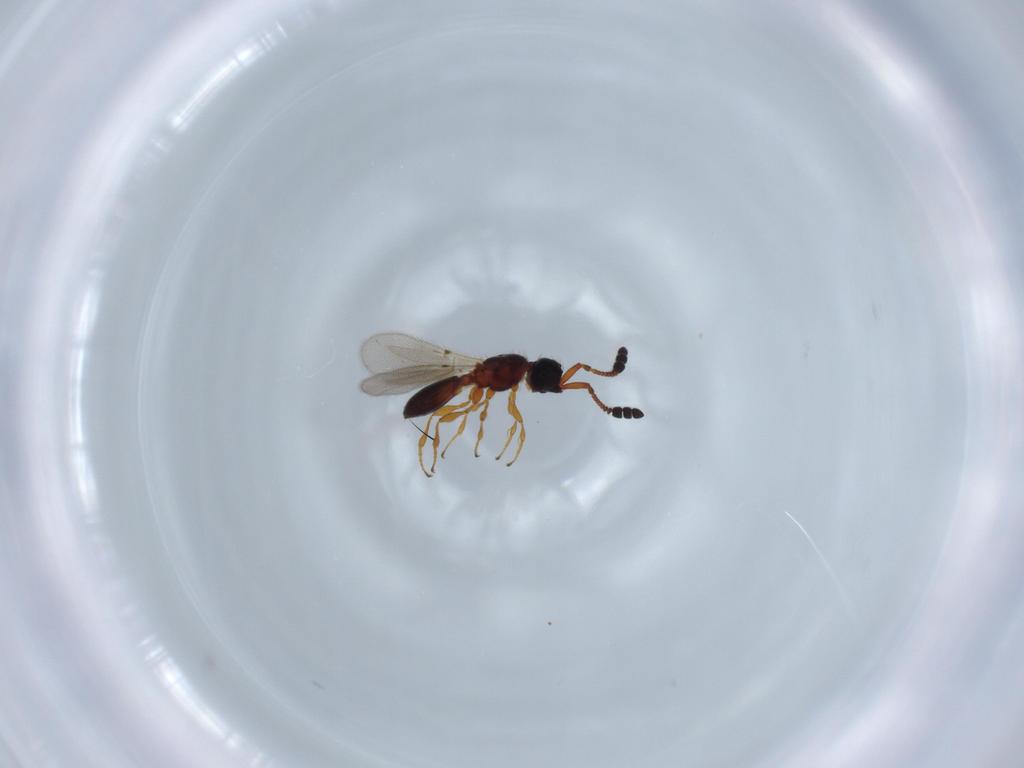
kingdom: Animalia
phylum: Arthropoda
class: Insecta
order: Hymenoptera
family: Diapriidae
